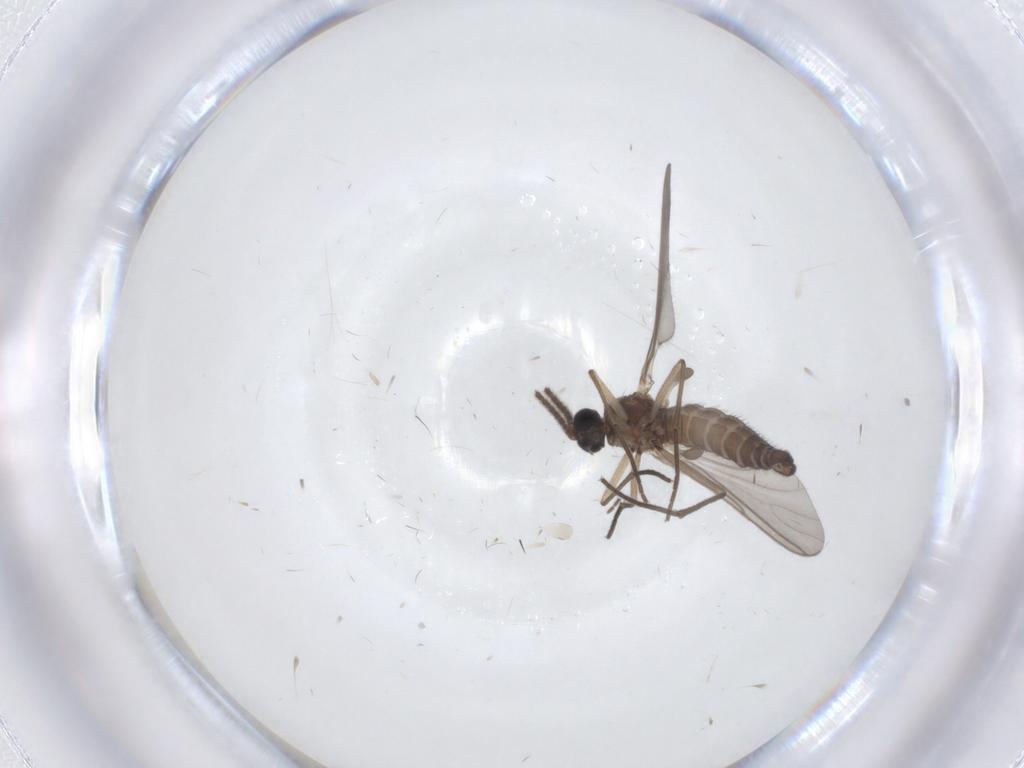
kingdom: Animalia
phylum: Arthropoda
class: Insecta
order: Diptera
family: Sciaridae
